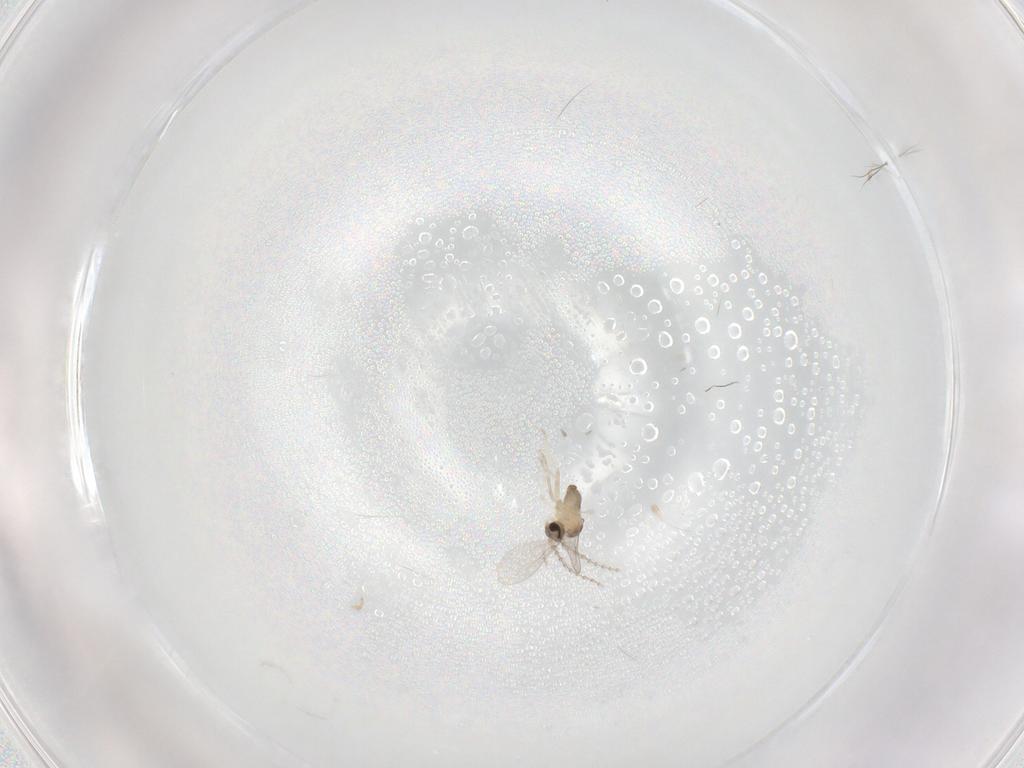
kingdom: Animalia
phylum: Arthropoda
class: Insecta
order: Diptera
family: Cecidomyiidae
